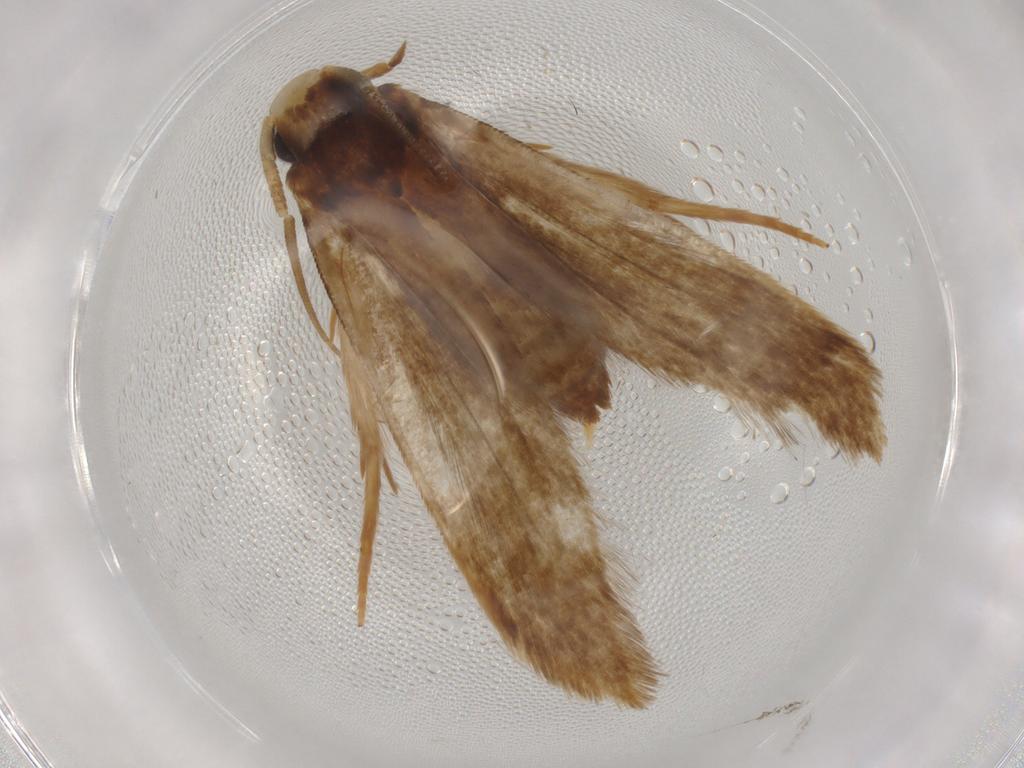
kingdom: Animalia
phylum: Arthropoda
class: Insecta
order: Lepidoptera
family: Tineidae
